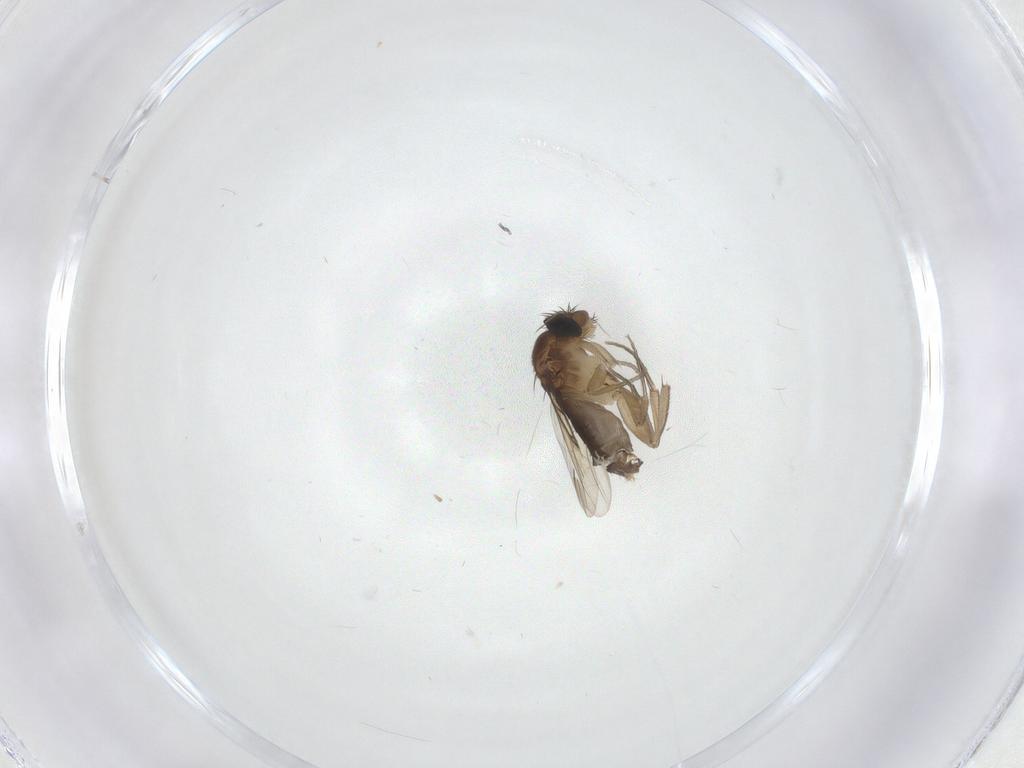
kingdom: Animalia
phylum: Arthropoda
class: Insecta
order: Diptera
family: Phoridae
